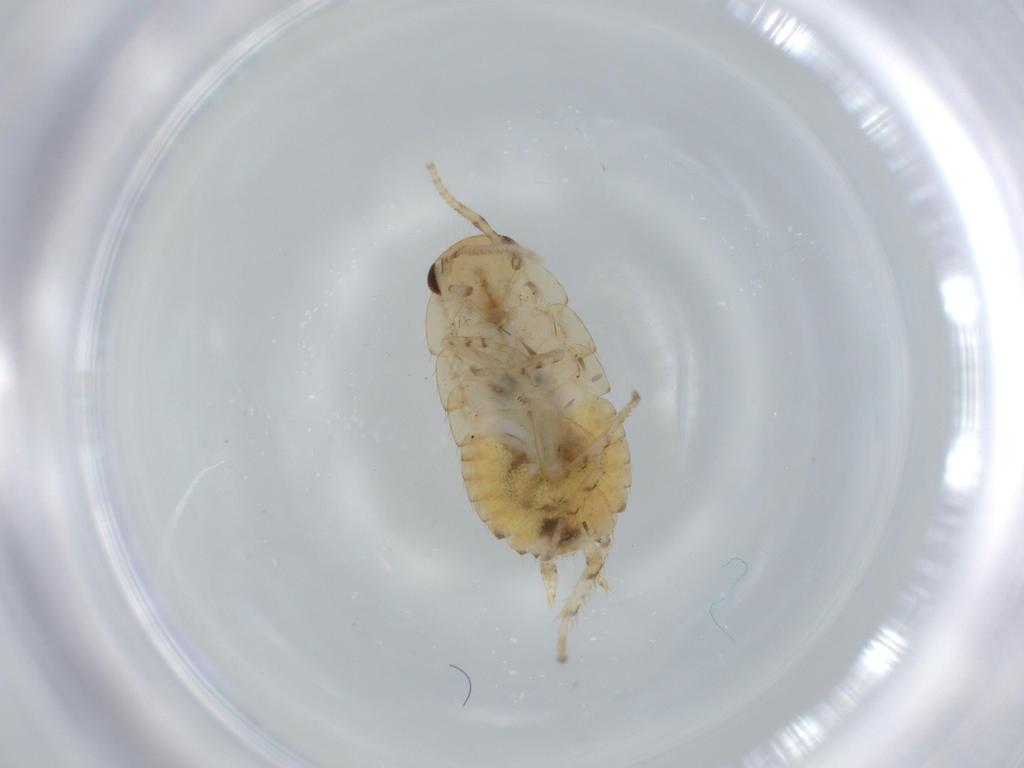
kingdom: Animalia
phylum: Arthropoda
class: Insecta
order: Blattodea
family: Ectobiidae
